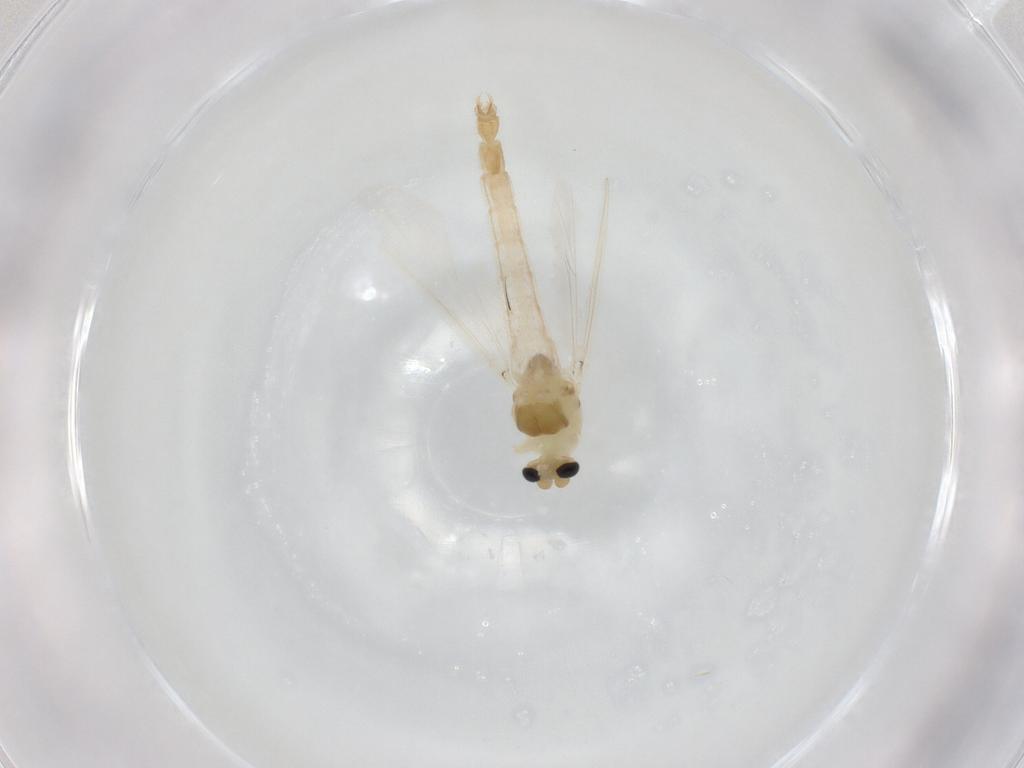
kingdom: Animalia
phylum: Arthropoda
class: Insecta
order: Diptera
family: Chironomidae
